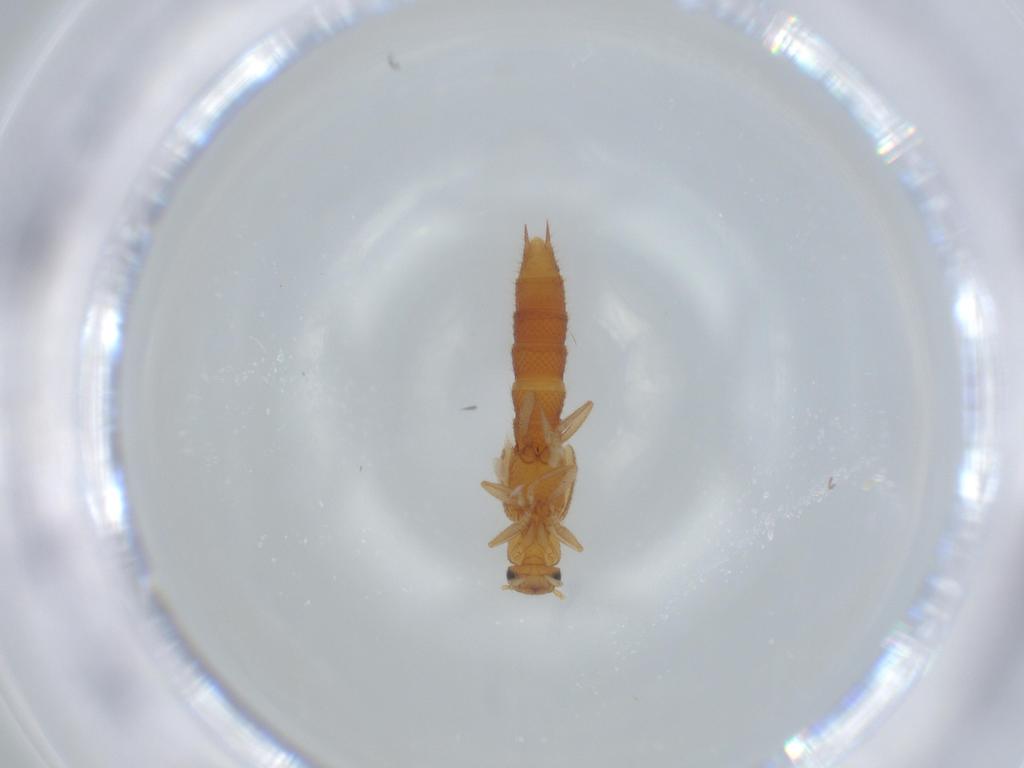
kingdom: Animalia
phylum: Arthropoda
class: Insecta
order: Coleoptera
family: Staphylinidae
